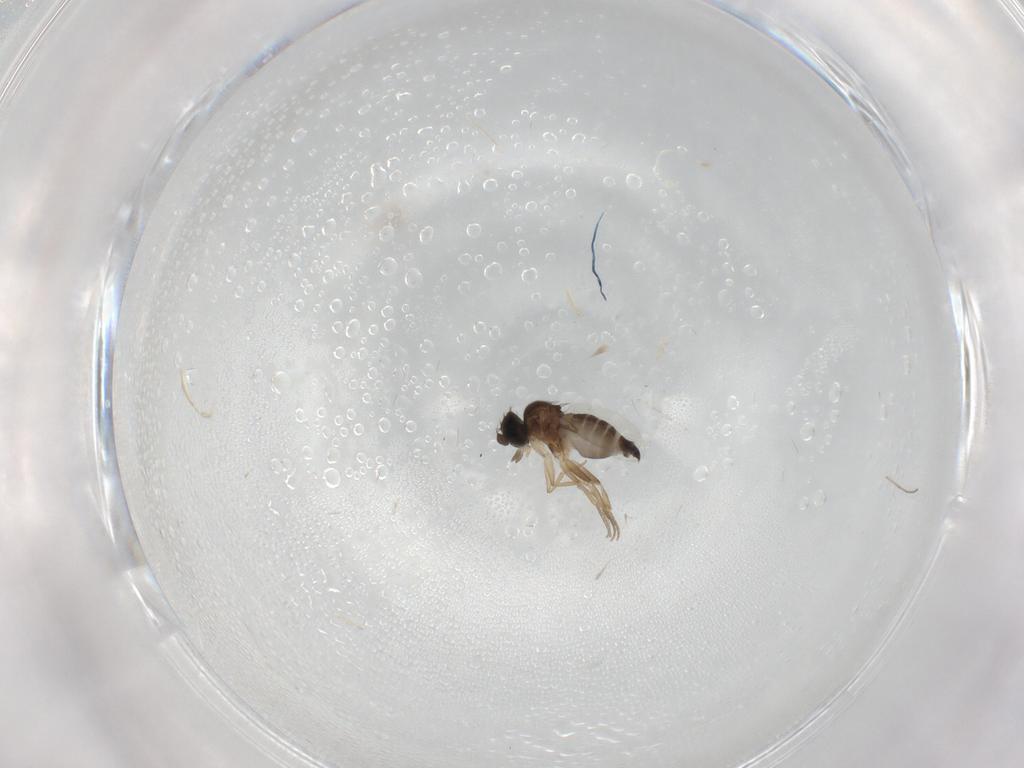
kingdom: Animalia
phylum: Arthropoda
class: Insecta
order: Diptera
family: Chironomidae
